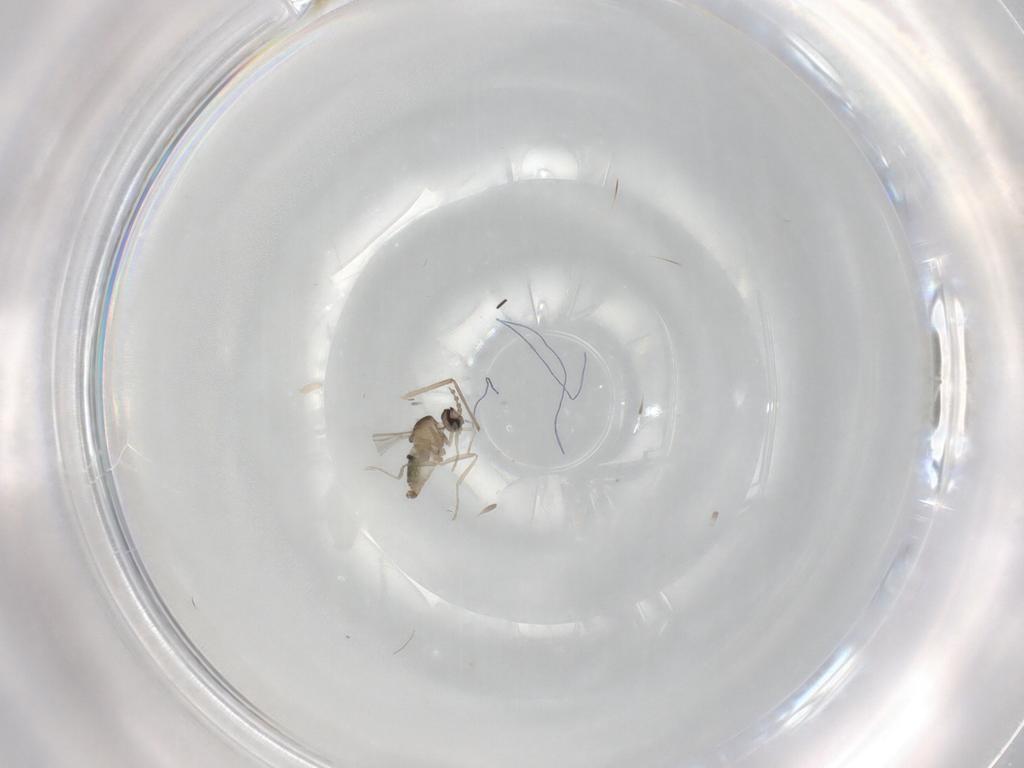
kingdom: Animalia
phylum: Arthropoda
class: Insecta
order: Diptera
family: Cecidomyiidae
